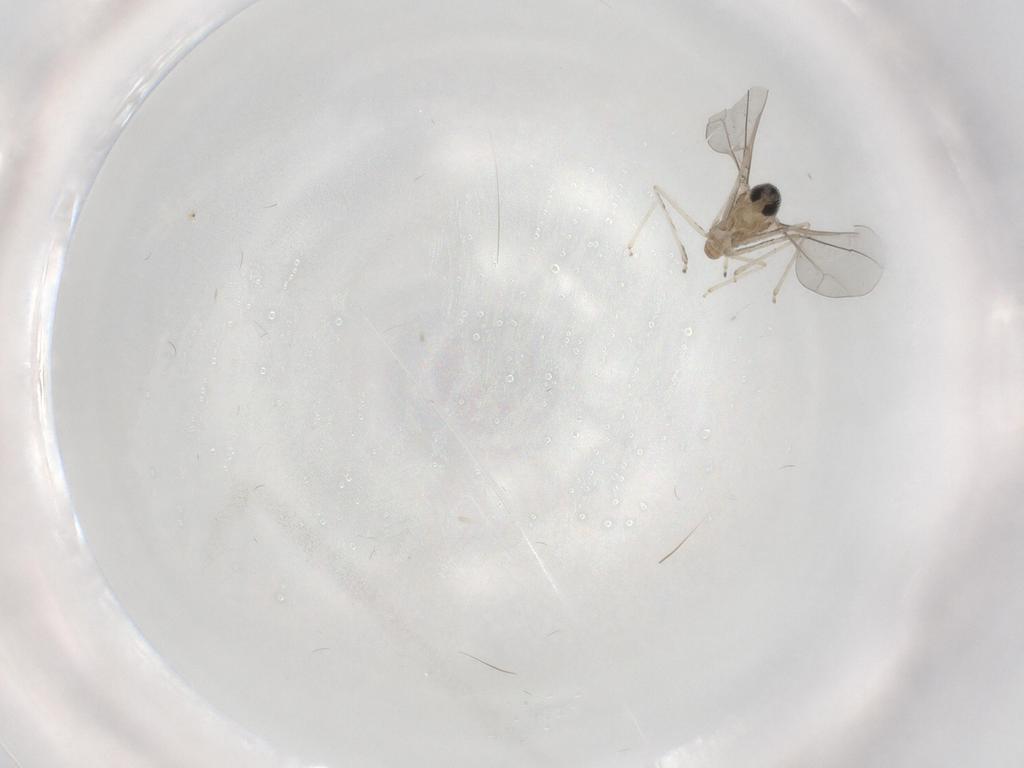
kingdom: Animalia
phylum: Arthropoda
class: Insecta
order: Diptera
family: Cecidomyiidae
